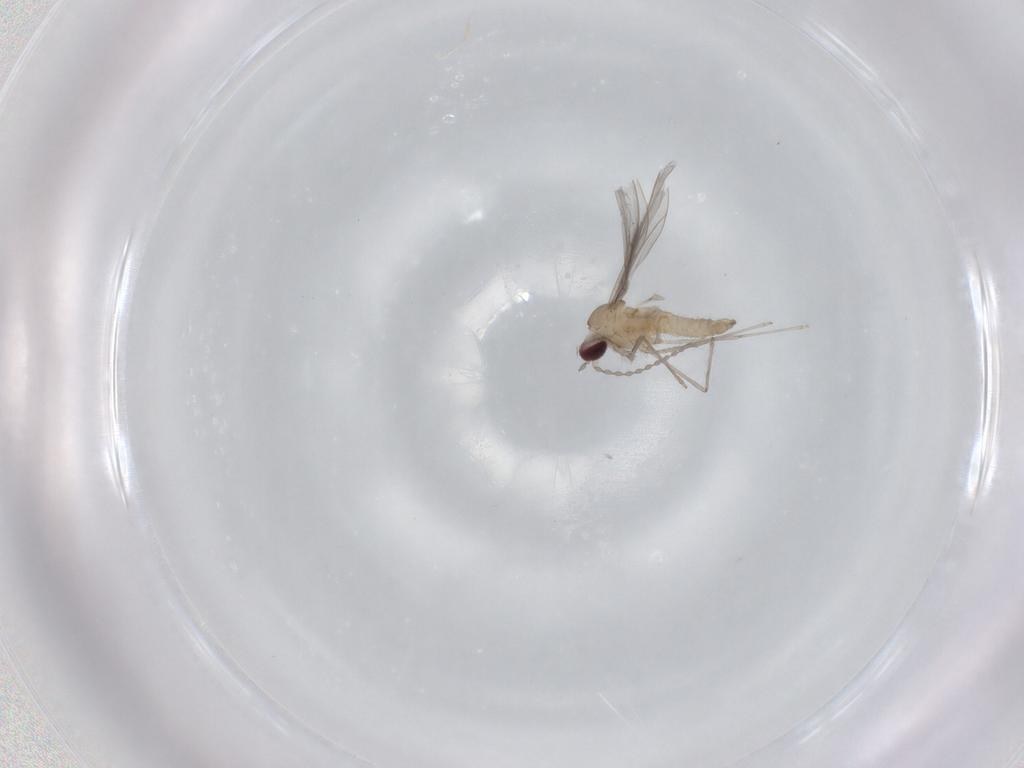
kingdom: Animalia
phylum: Arthropoda
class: Insecta
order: Diptera
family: Cecidomyiidae
